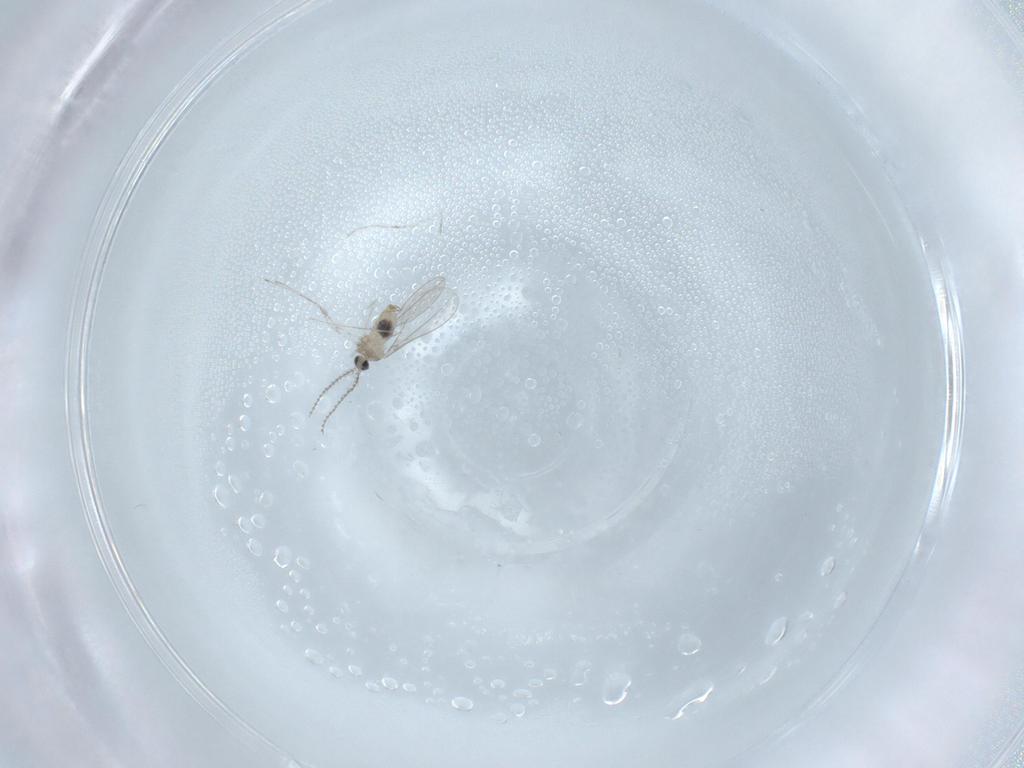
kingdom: Animalia
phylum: Arthropoda
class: Insecta
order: Diptera
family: Cecidomyiidae
